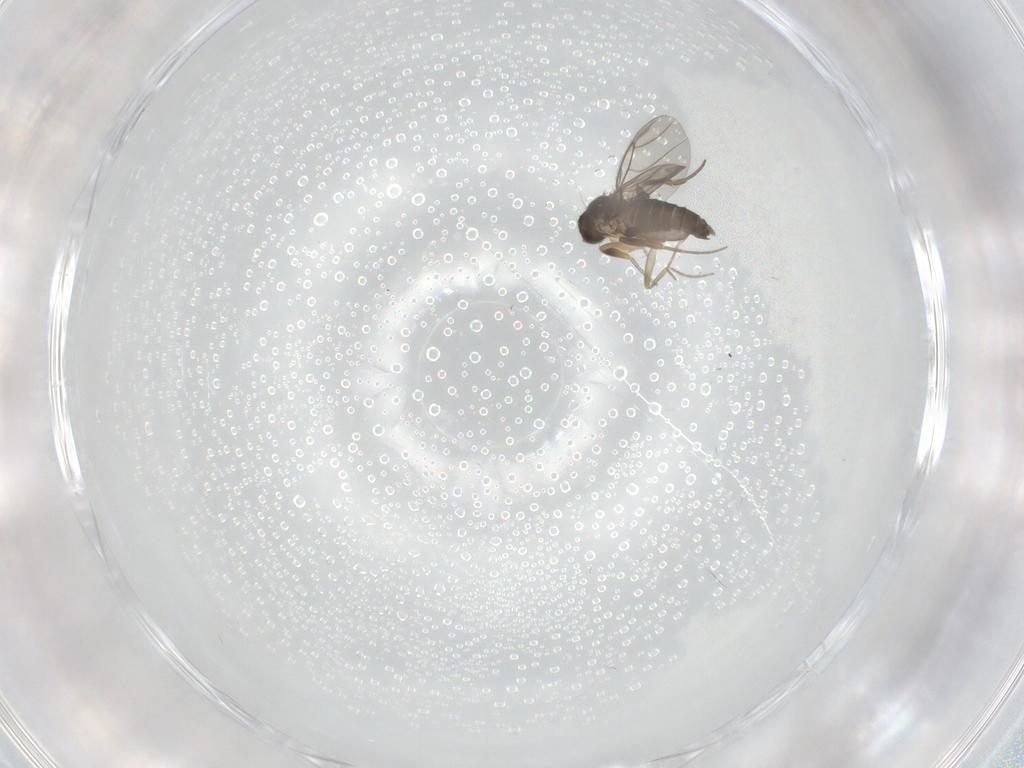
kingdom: Animalia
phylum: Arthropoda
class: Insecta
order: Diptera
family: Phoridae
